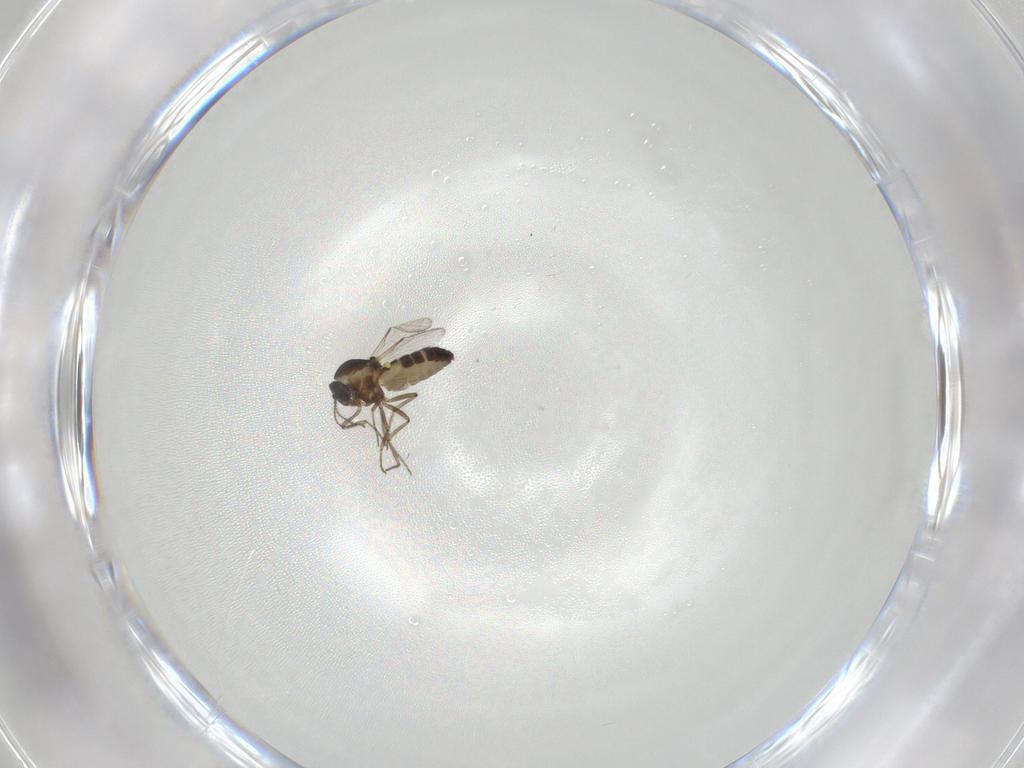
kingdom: Animalia
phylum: Arthropoda
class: Insecta
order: Diptera
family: Ceratopogonidae
